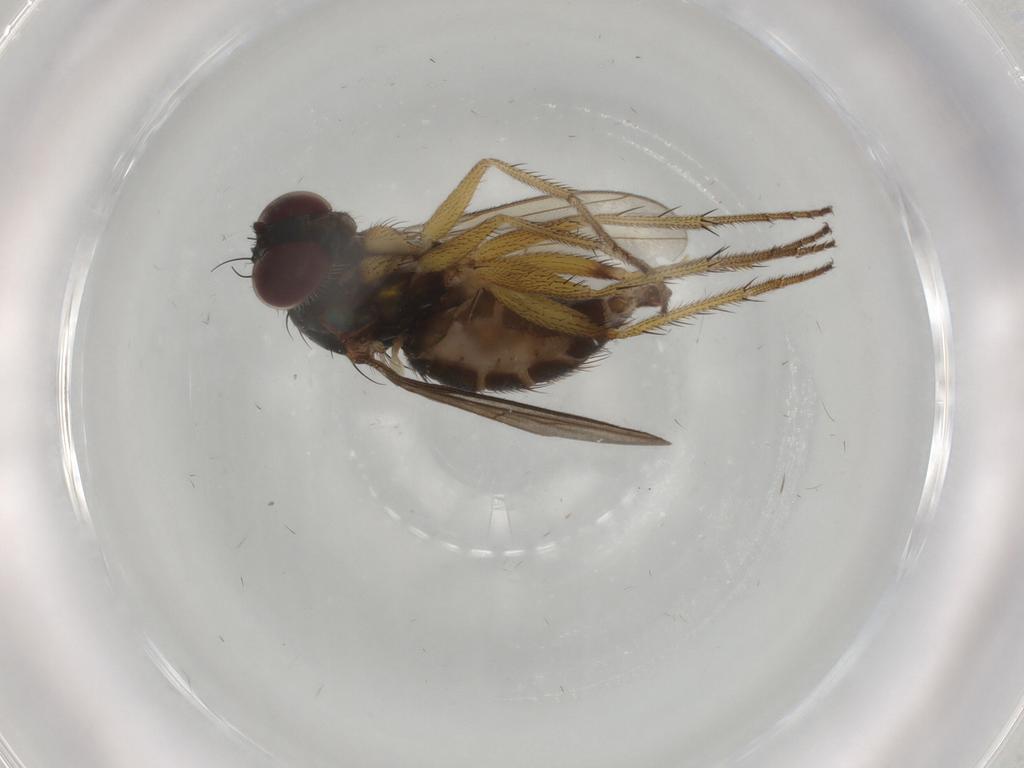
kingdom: Animalia
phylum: Arthropoda
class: Insecta
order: Diptera
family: Dolichopodidae
